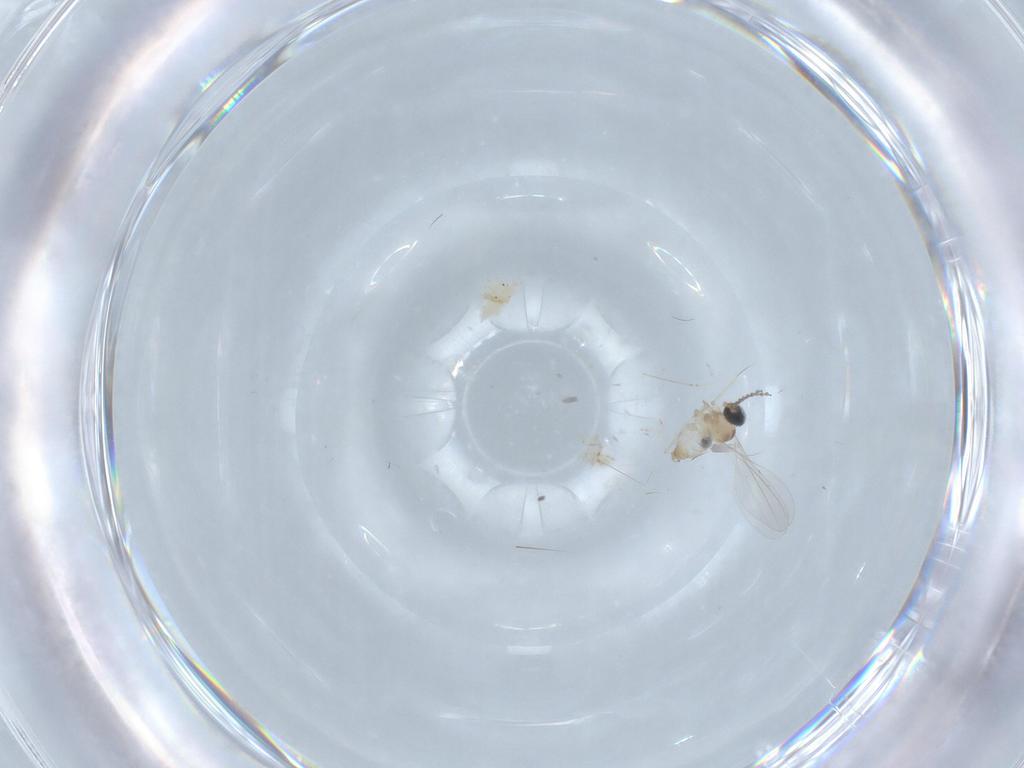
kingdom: Animalia
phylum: Arthropoda
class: Insecta
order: Diptera
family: Cecidomyiidae
